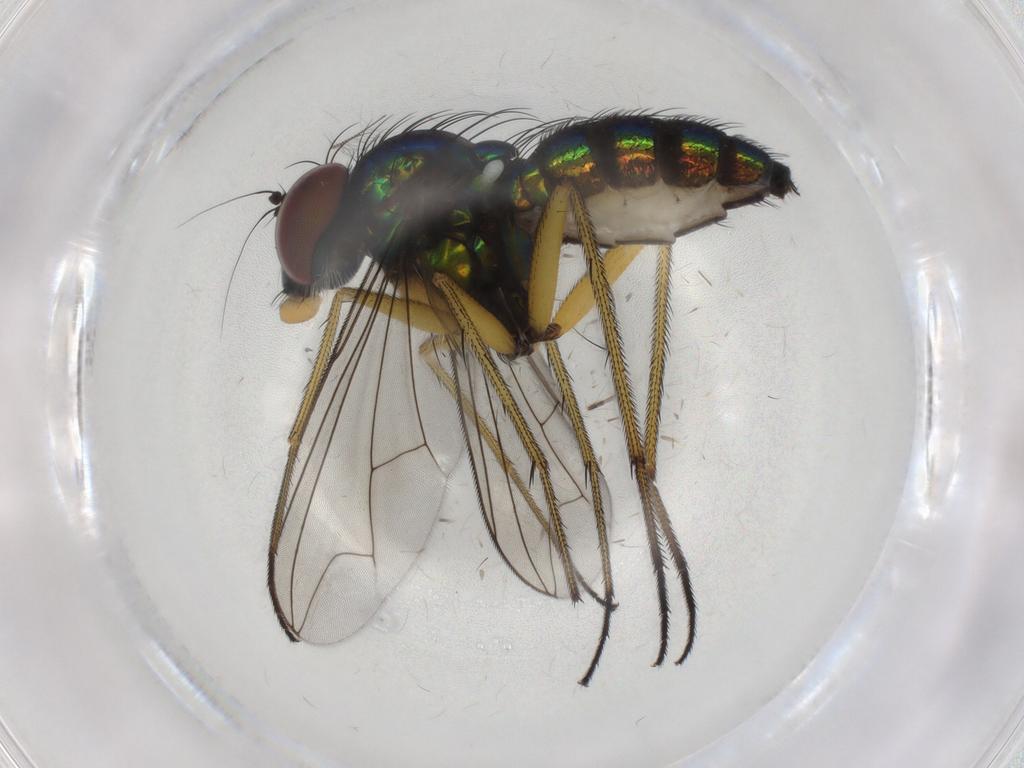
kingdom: Animalia
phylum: Arthropoda
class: Insecta
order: Diptera
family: Dolichopodidae
